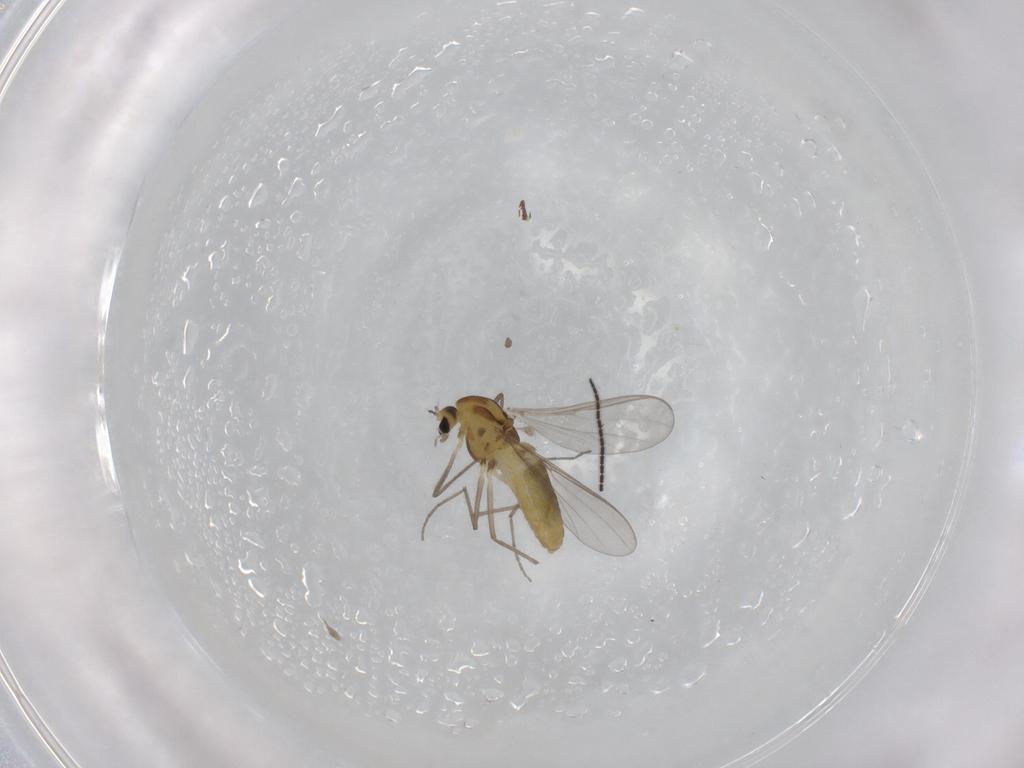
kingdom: Animalia
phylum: Arthropoda
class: Insecta
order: Diptera
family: Chironomidae
